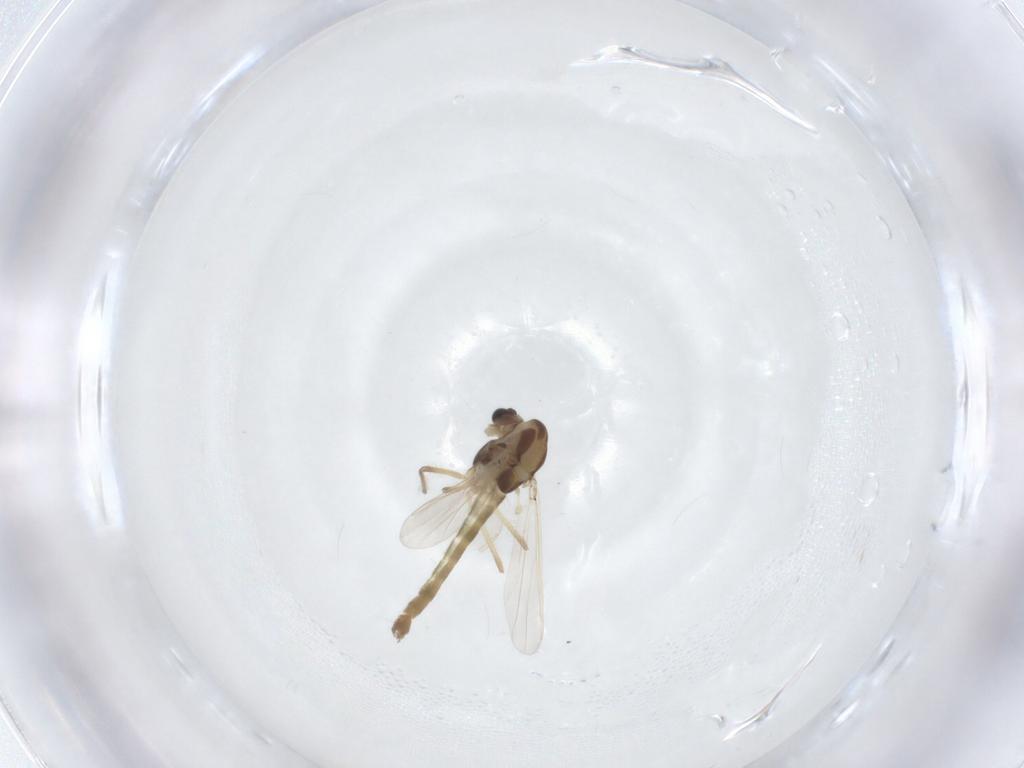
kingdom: Animalia
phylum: Arthropoda
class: Insecta
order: Diptera
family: Chironomidae
